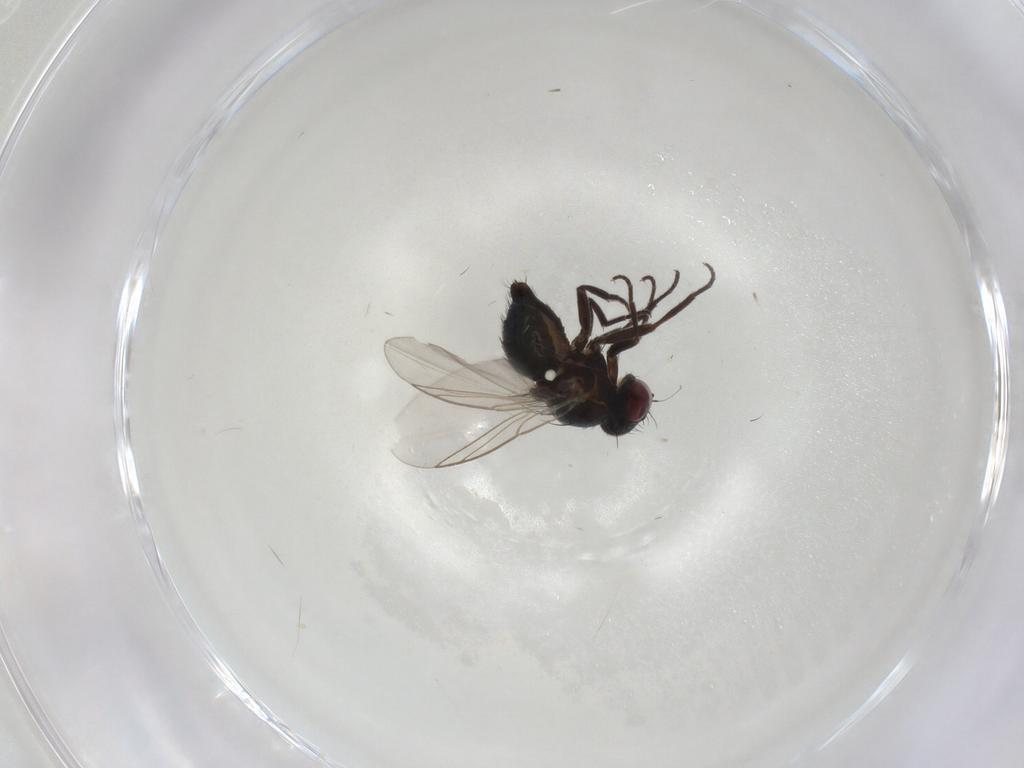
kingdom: Animalia
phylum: Arthropoda
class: Insecta
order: Diptera
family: Agromyzidae
